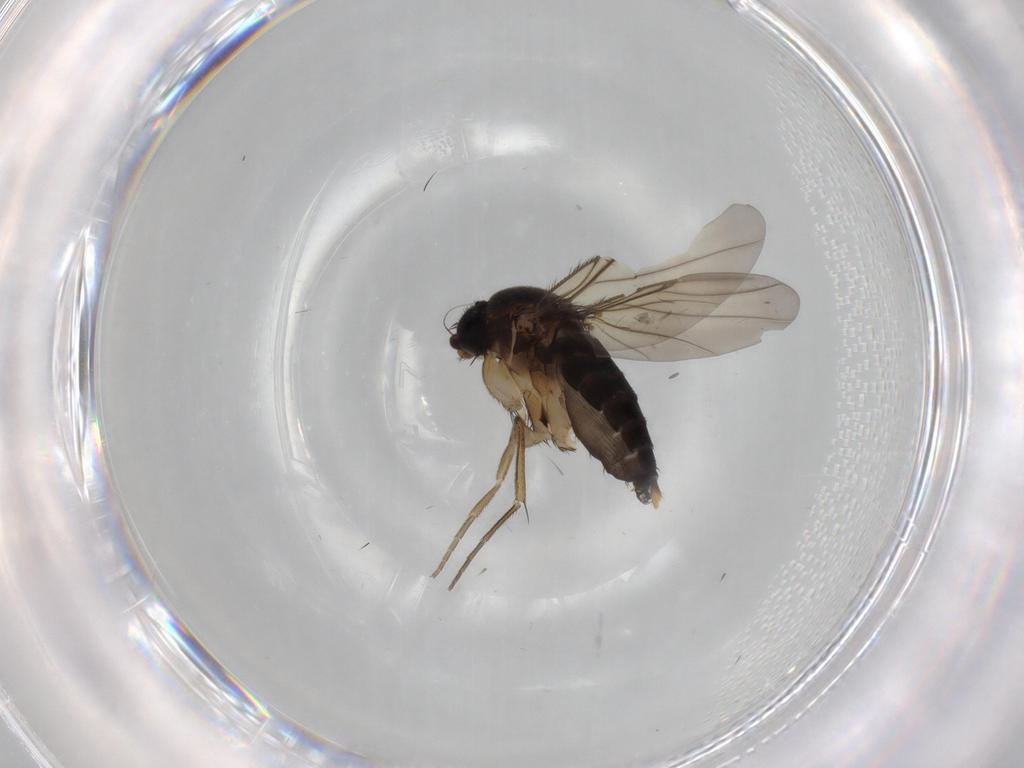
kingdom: Animalia
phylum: Arthropoda
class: Insecta
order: Diptera
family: Phoridae
